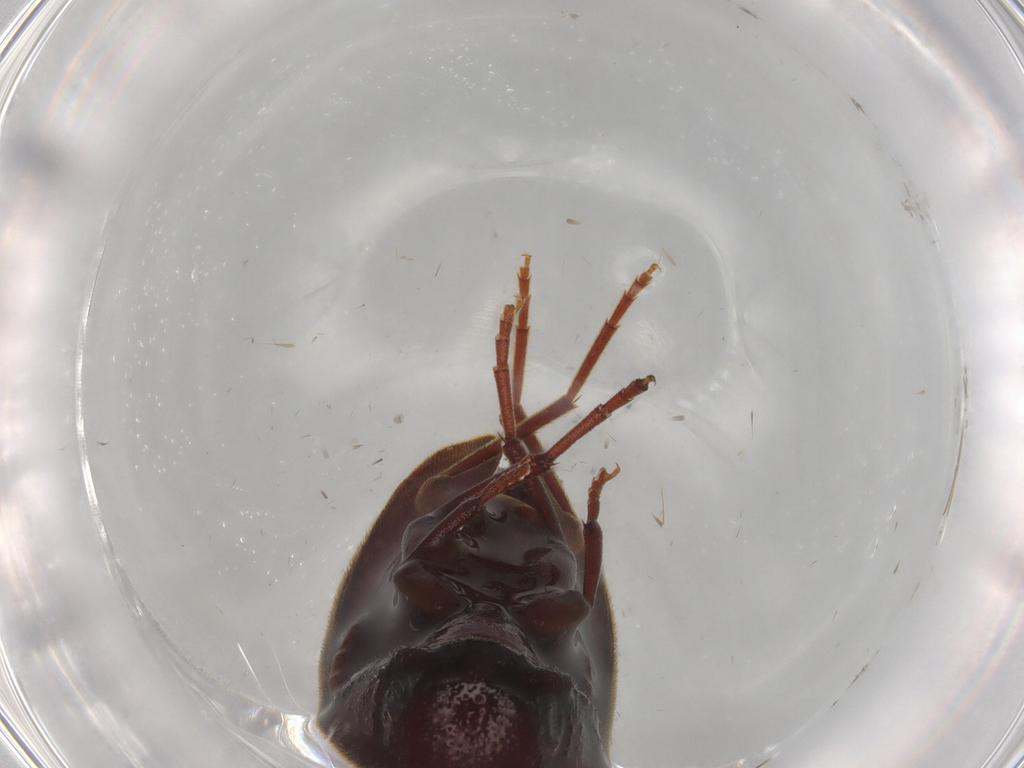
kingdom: Animalia
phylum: Arthropoda
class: Insecta
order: Coleoptera
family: Eucnemidae
